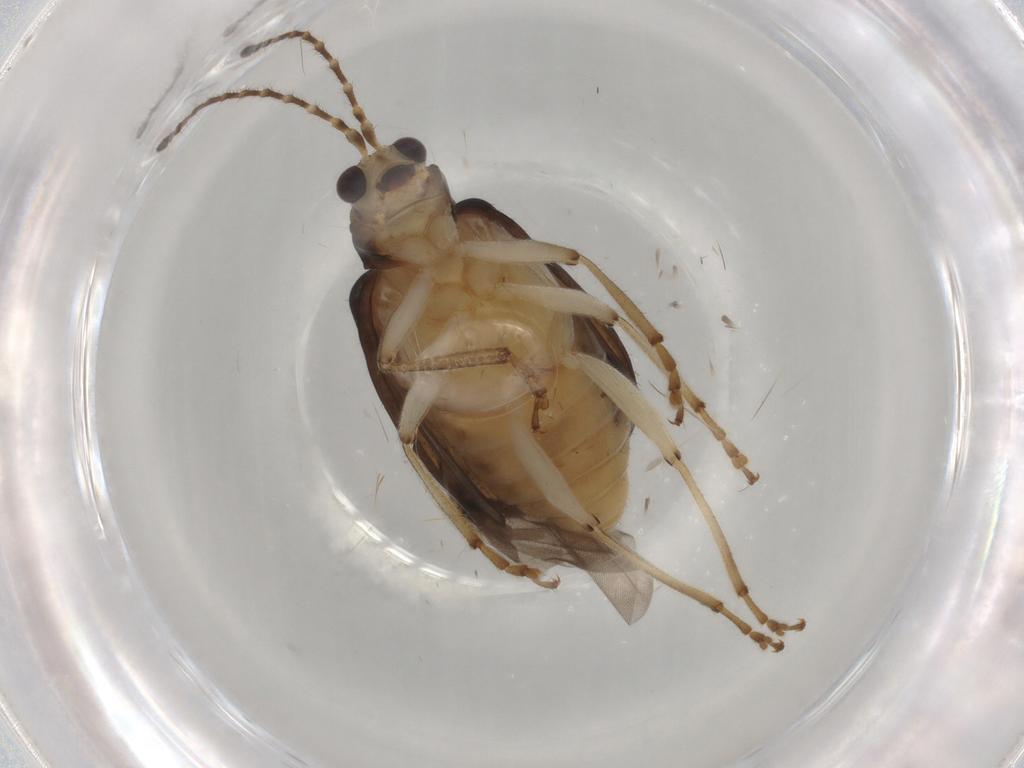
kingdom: Animalia
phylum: Arthropoda
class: Insecta
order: Coleoptera
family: Chrysomelidae
